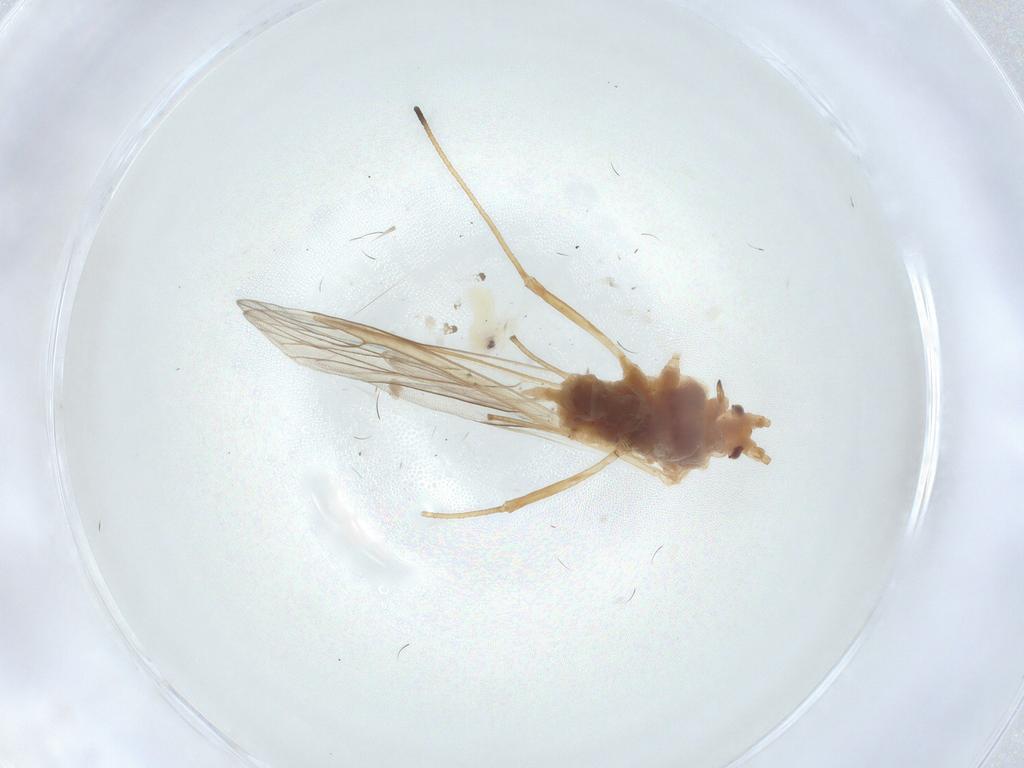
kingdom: Animalia
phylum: Arthropoda
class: Insecta
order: Hemiptera
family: Aphididae
